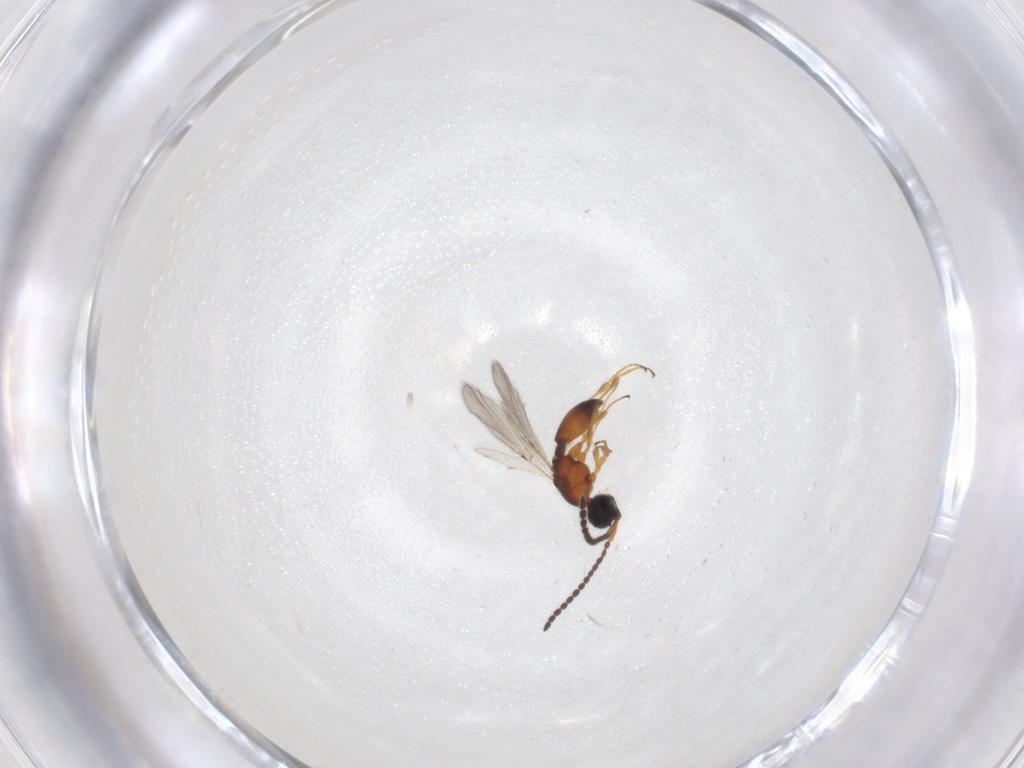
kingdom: Animalia
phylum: Arthropoda
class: Insecta
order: Hymenoptera
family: Diapriidae
